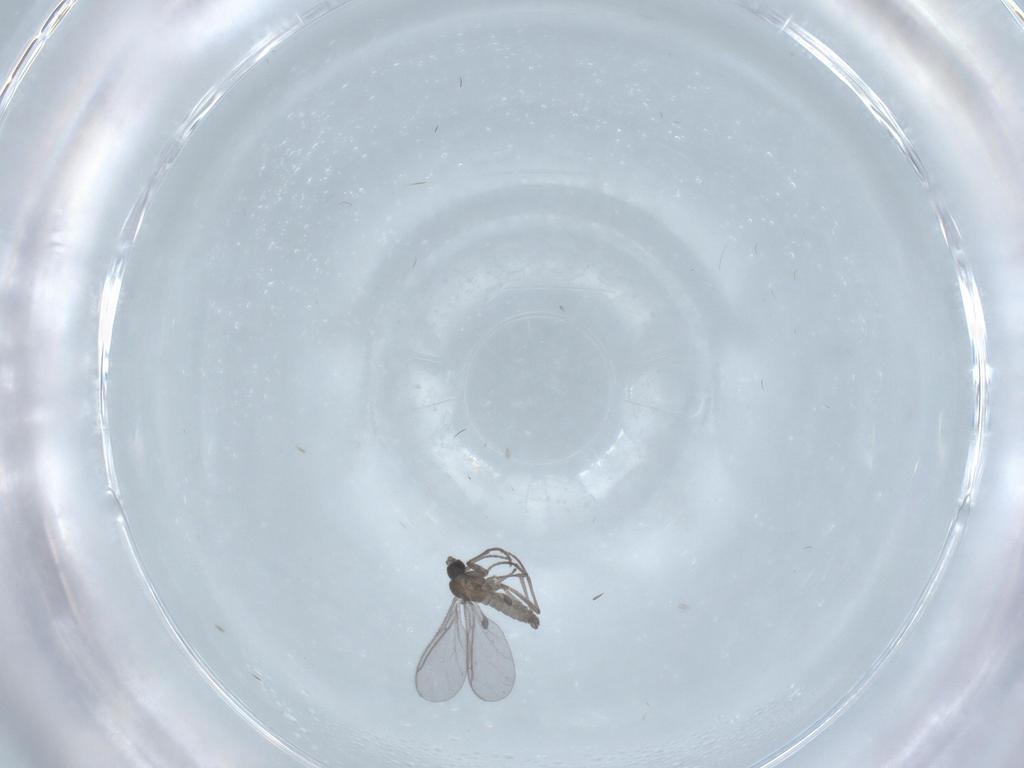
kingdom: Animalia
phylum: Arthropoda
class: Insecta
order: Diptera
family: Sciaridae
